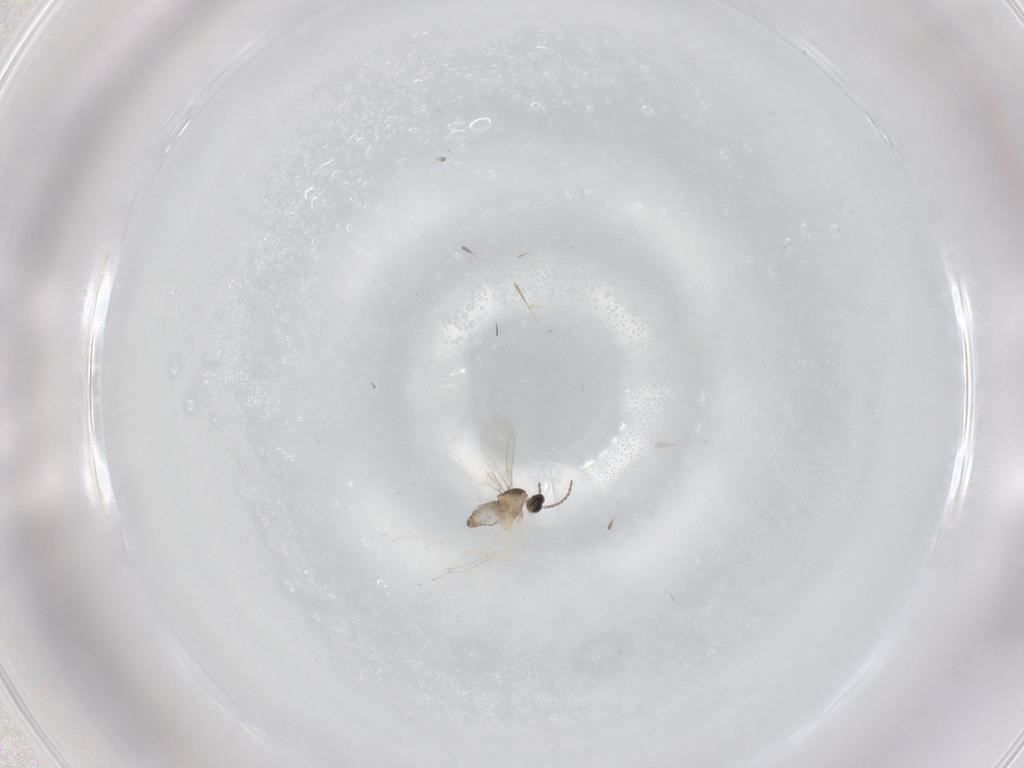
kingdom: Animalia
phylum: Arthropoda
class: Insecta
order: Diptera
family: Cecidomyiidae
